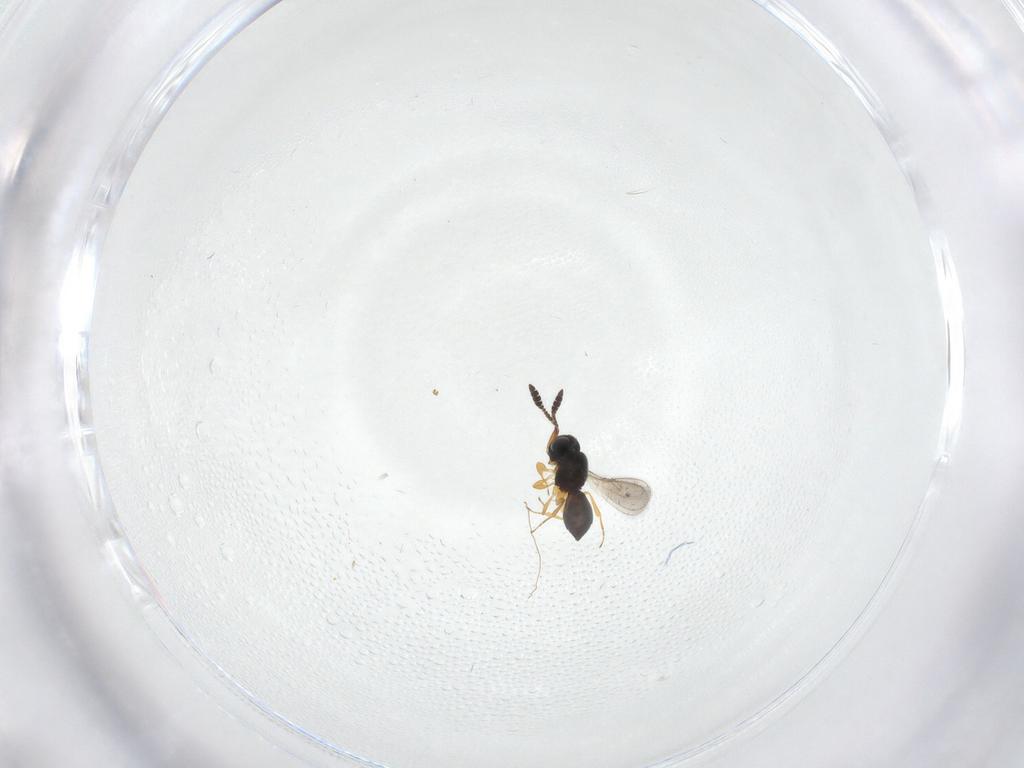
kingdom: Animalia
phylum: Arthropoda
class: Insecta
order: Hymenoptera
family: Scelionidae
